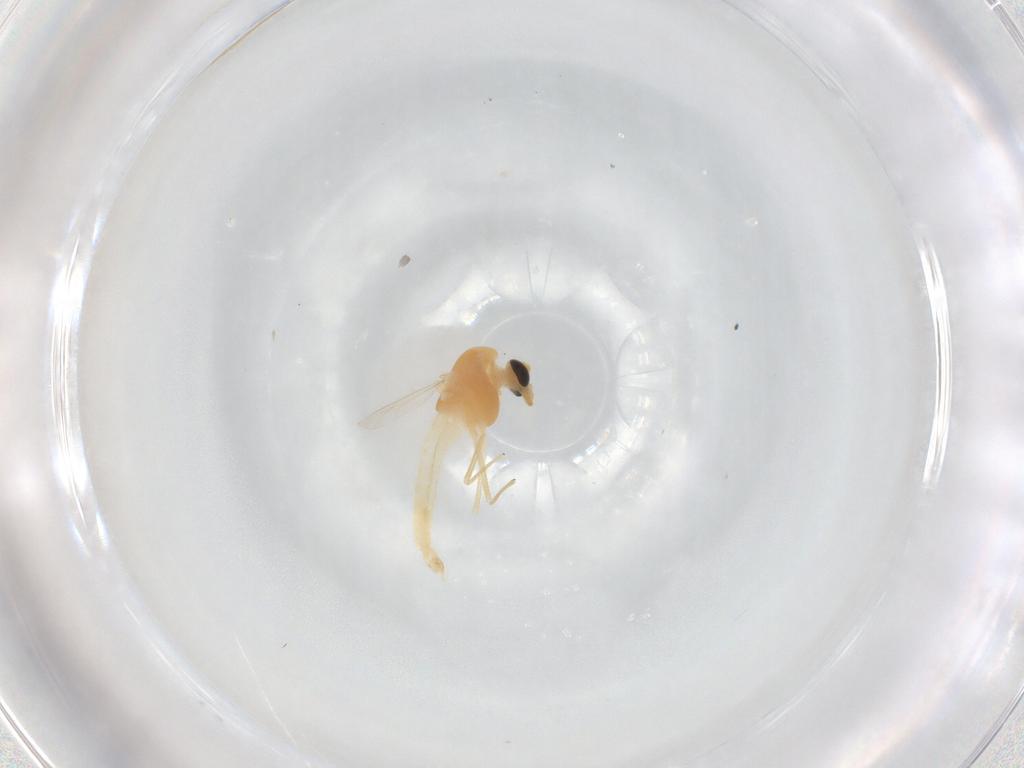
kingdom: Animalia
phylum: Arthropoda
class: Insecta
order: Diptera
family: Chironomidae
